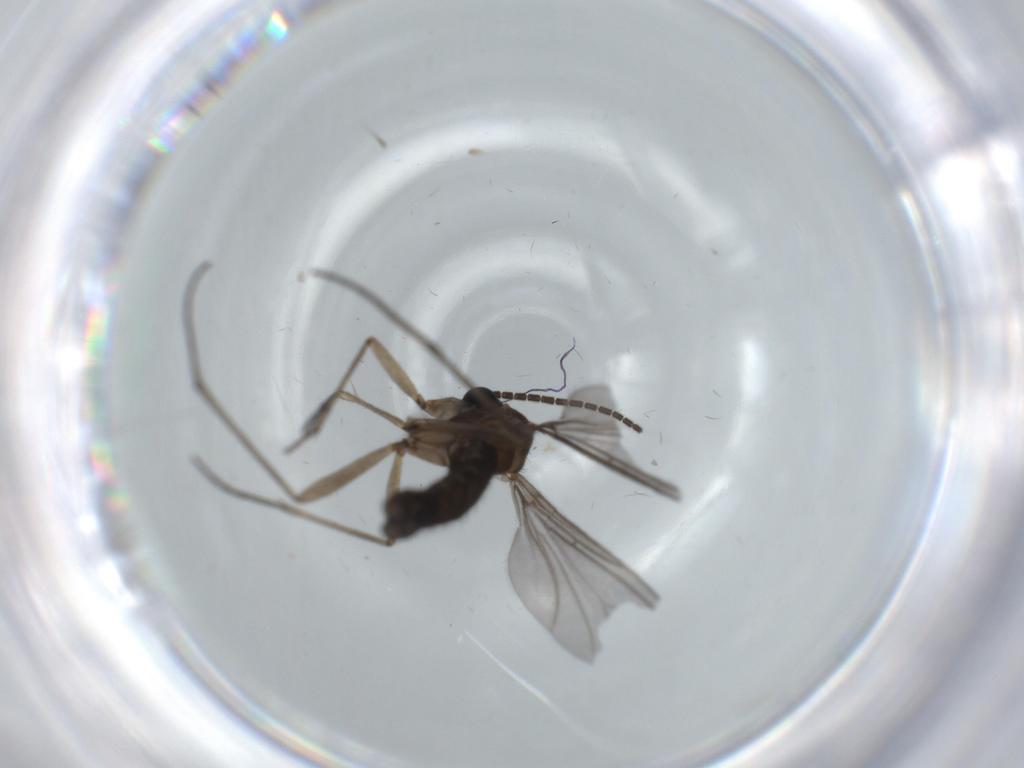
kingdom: Animalia
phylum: Arthropoda
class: Insecta
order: Diptera
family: Sciaridae
